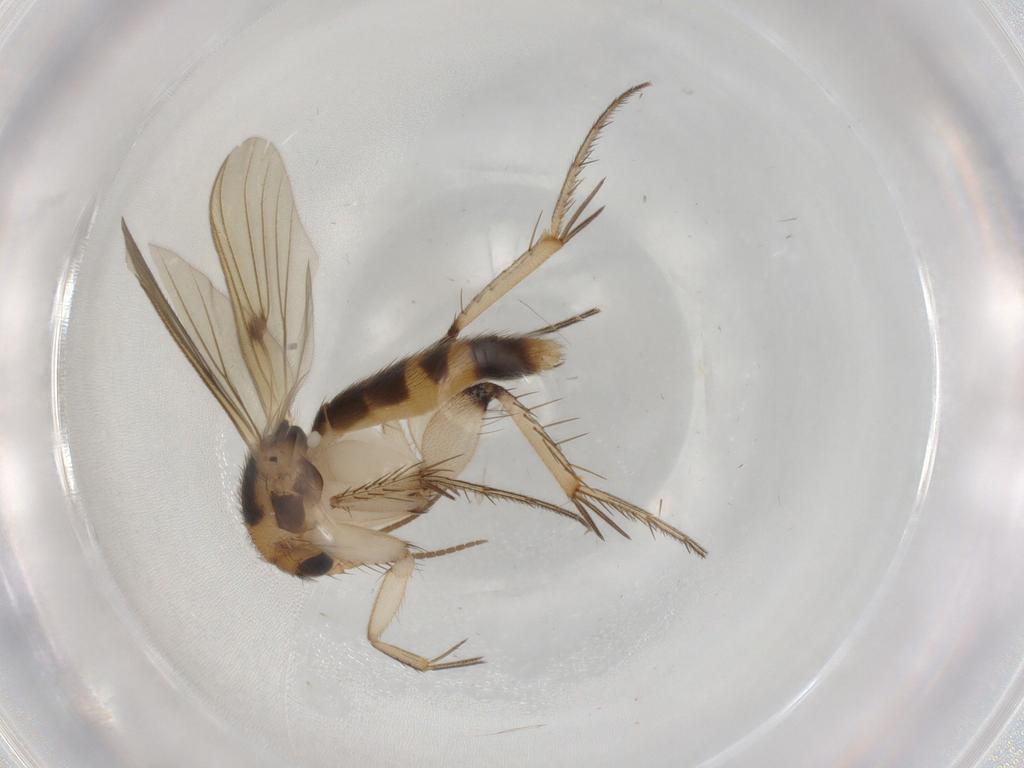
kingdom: Animalia
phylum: Arthropoda
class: Insecta
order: Diptera
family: Mycetophilidae
